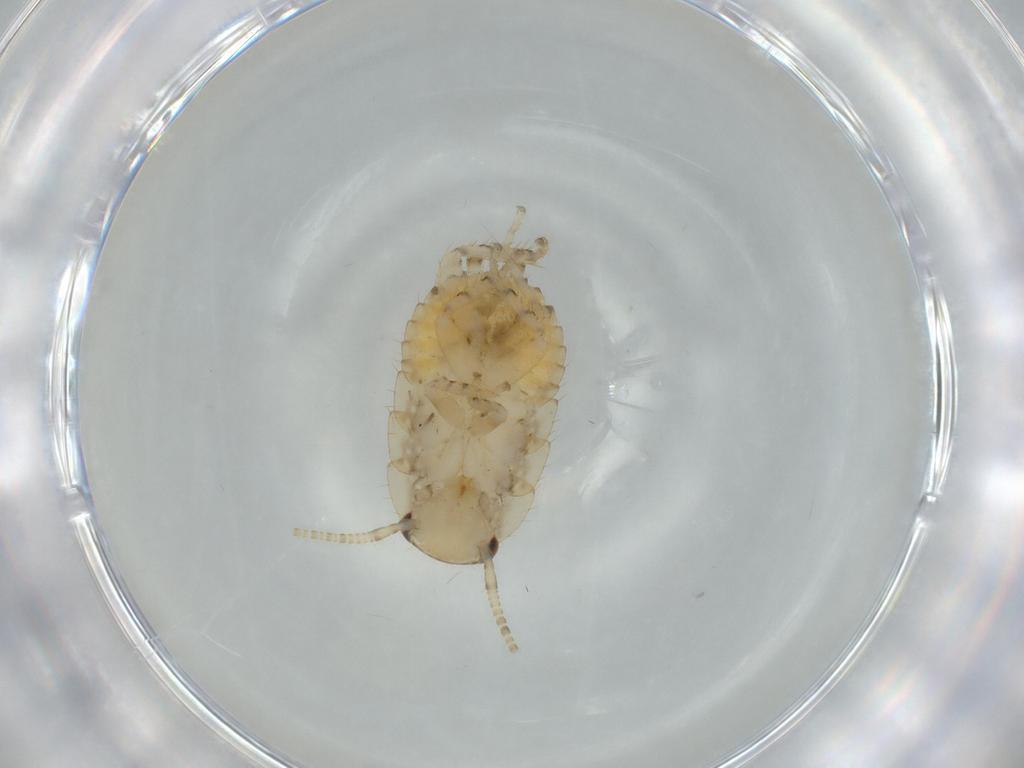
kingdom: Animalia
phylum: Arthropoda
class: Insecta
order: Blattodea
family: Ectobiidae
